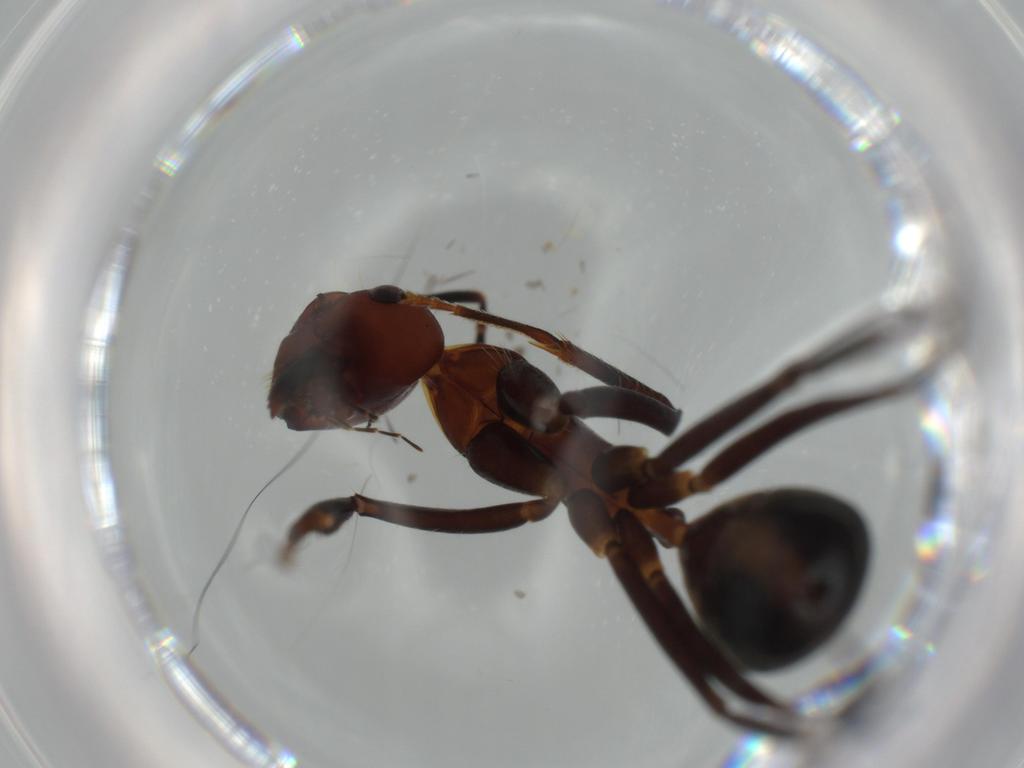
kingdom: Animalia
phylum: Arthropoda
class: Insecta
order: Hymenoptera
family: Formicidae
